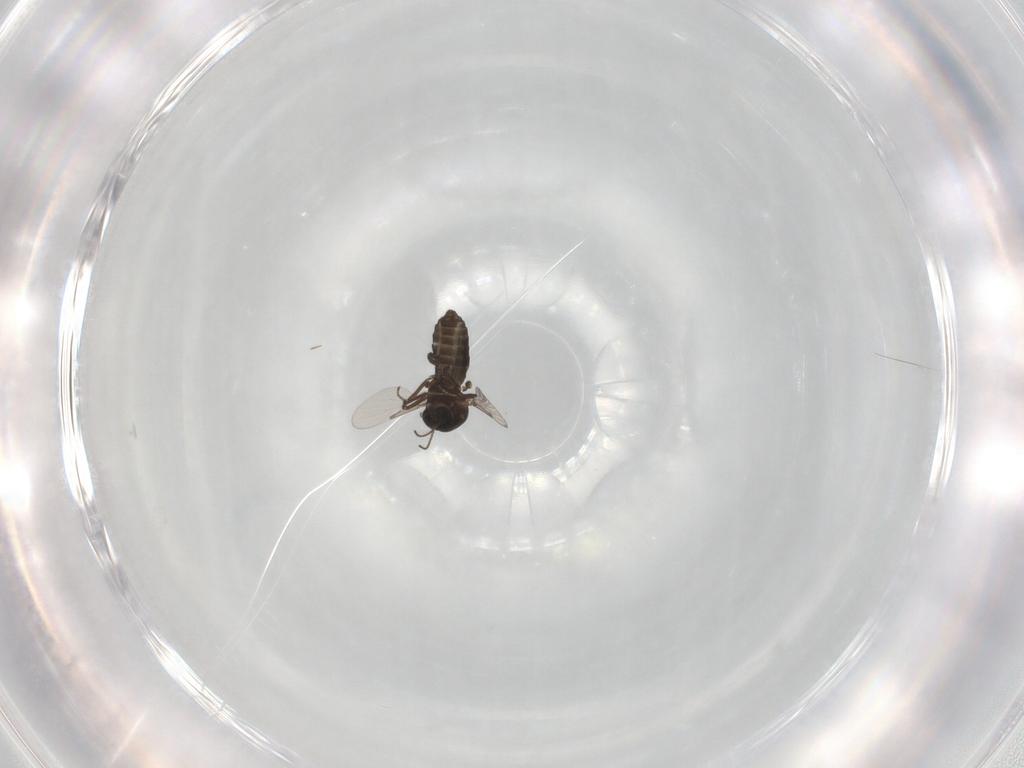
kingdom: Animalia
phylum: Arthropoda
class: Insecta
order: Diptera
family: Ceratopogonidae
